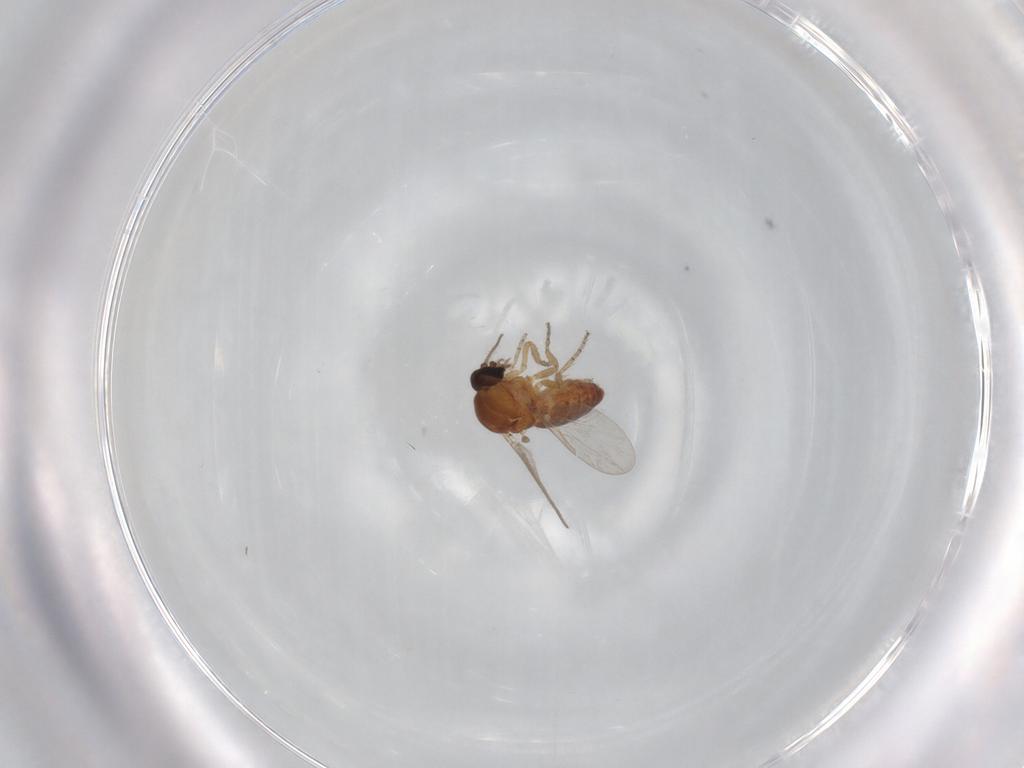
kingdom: Animalia
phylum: Arthropoda
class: Insecta
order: Diptera
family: Ceratopogonidae
